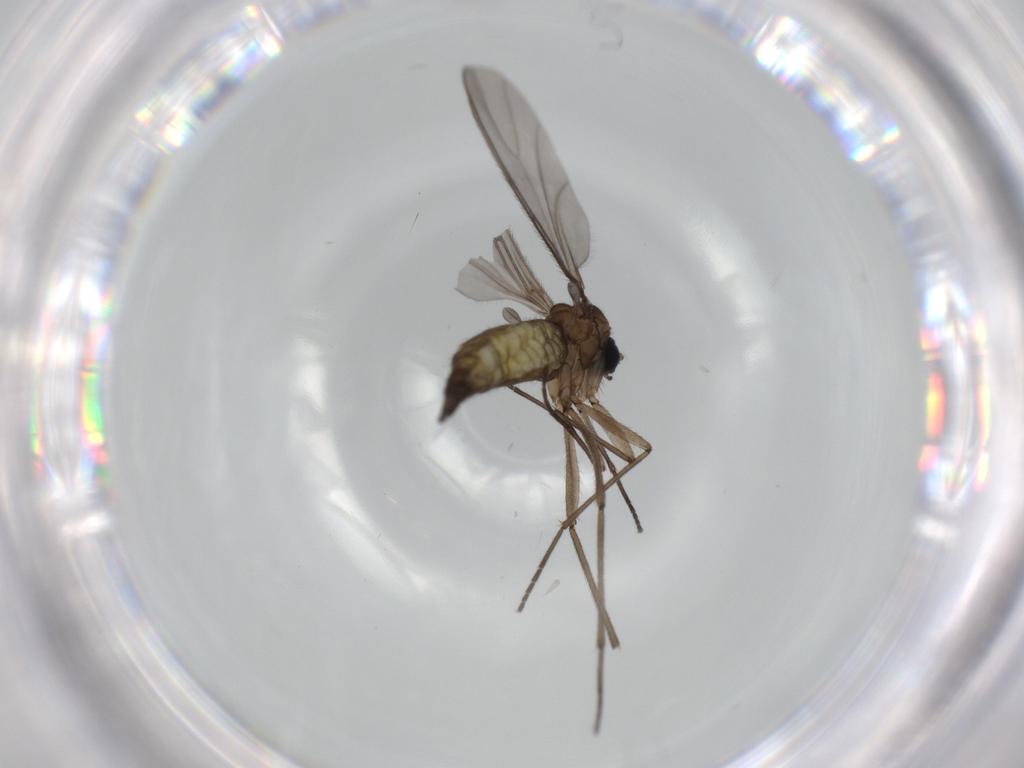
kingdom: Animalia
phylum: Arthropoda
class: Insecta
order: Diptera
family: Sciaridae
